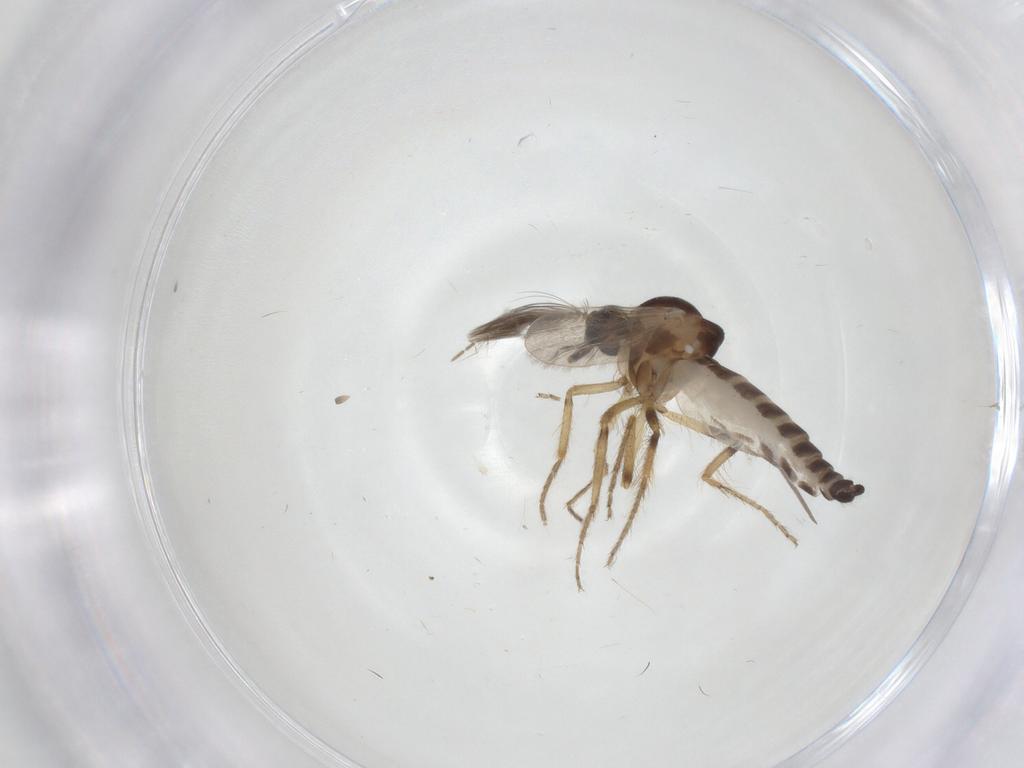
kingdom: Animalia
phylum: Arthropoda
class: Insecta
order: Diptera
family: Ceratopogonidae
